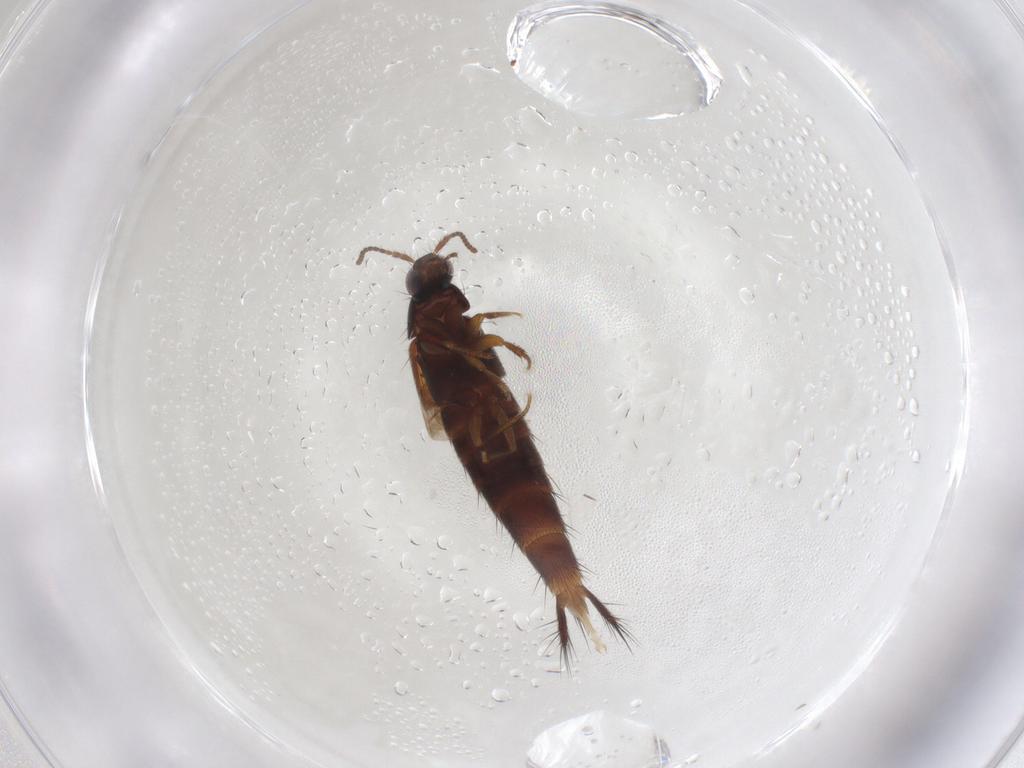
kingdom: Animalia
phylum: Arthropoda
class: Insecta
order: Coleoptera
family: Staphylinidae
